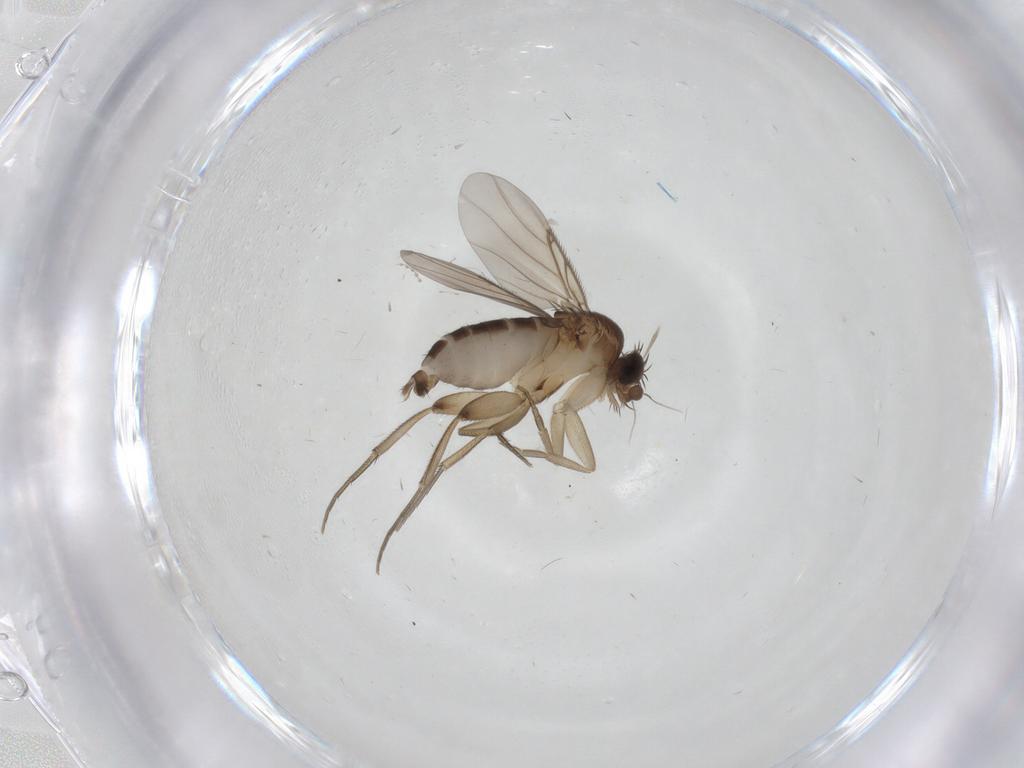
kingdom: Animalia
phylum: Arthropoda
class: Insecta
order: Diptera
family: Phoridae
